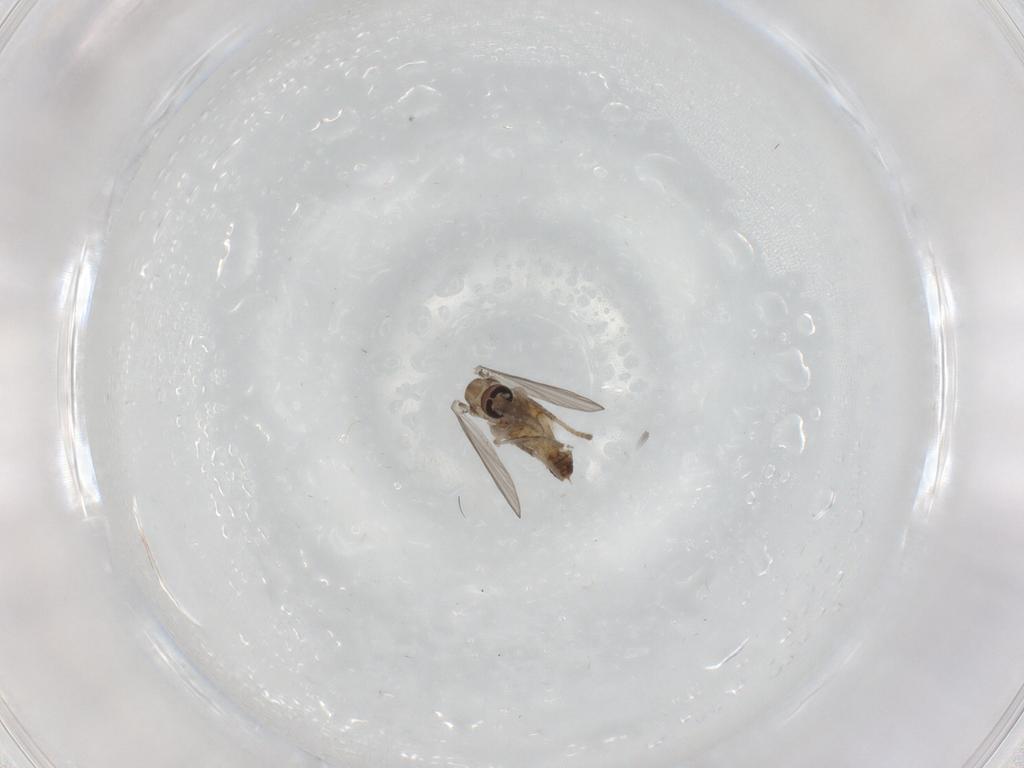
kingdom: Animalia
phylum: Arthropoda
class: Insecta
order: Diptera
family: Psychodidae
